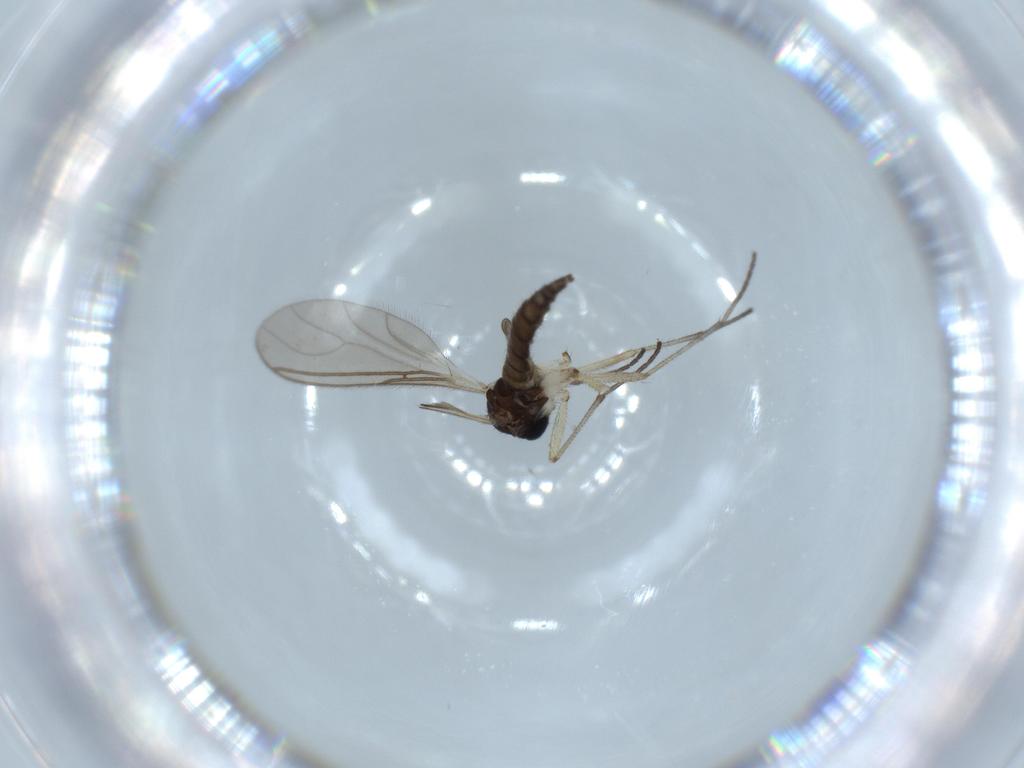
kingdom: Animalia
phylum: Arthropoda
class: Insecta
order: Diptera
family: Sciaridae
